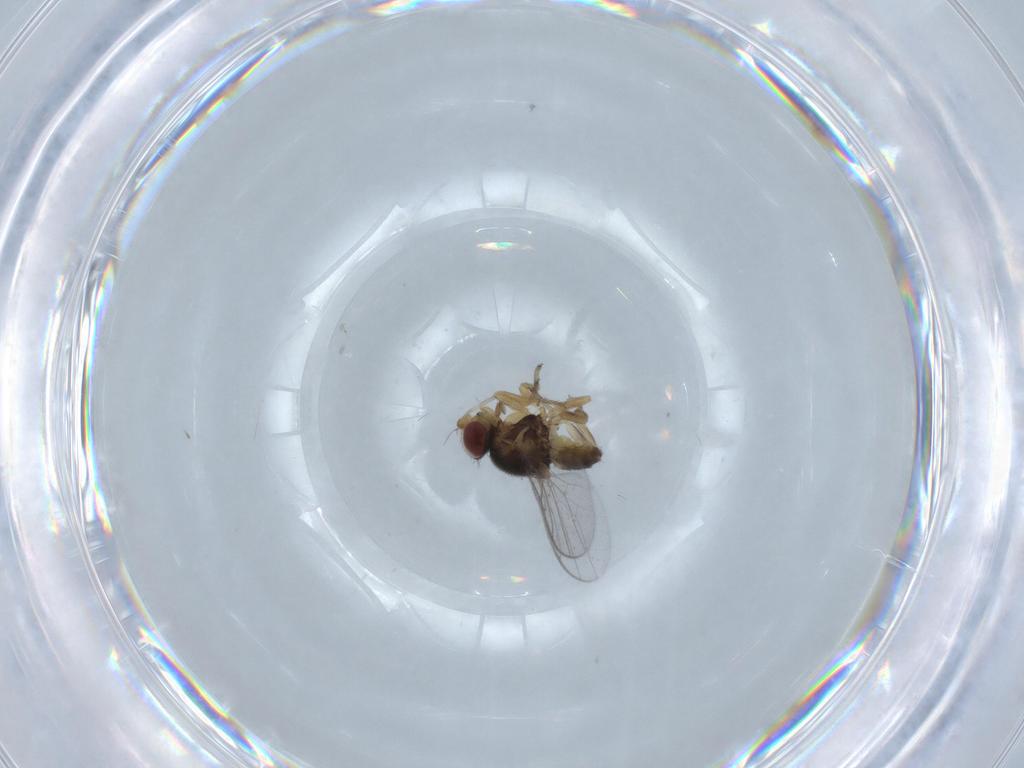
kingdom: Animalia
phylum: Arthropoda
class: Insecta
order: Diptera
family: Chloropidae
